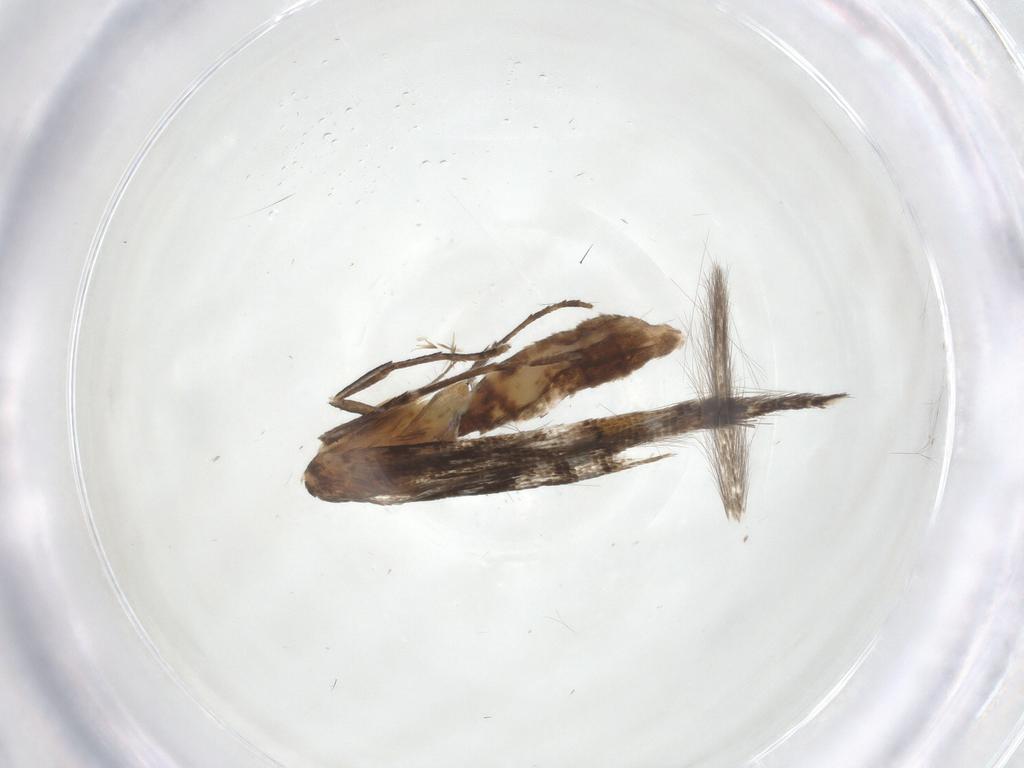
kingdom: Animalia
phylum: Arthropoda
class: Insecta
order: Lepidoptera
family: Cosmopterigidae
